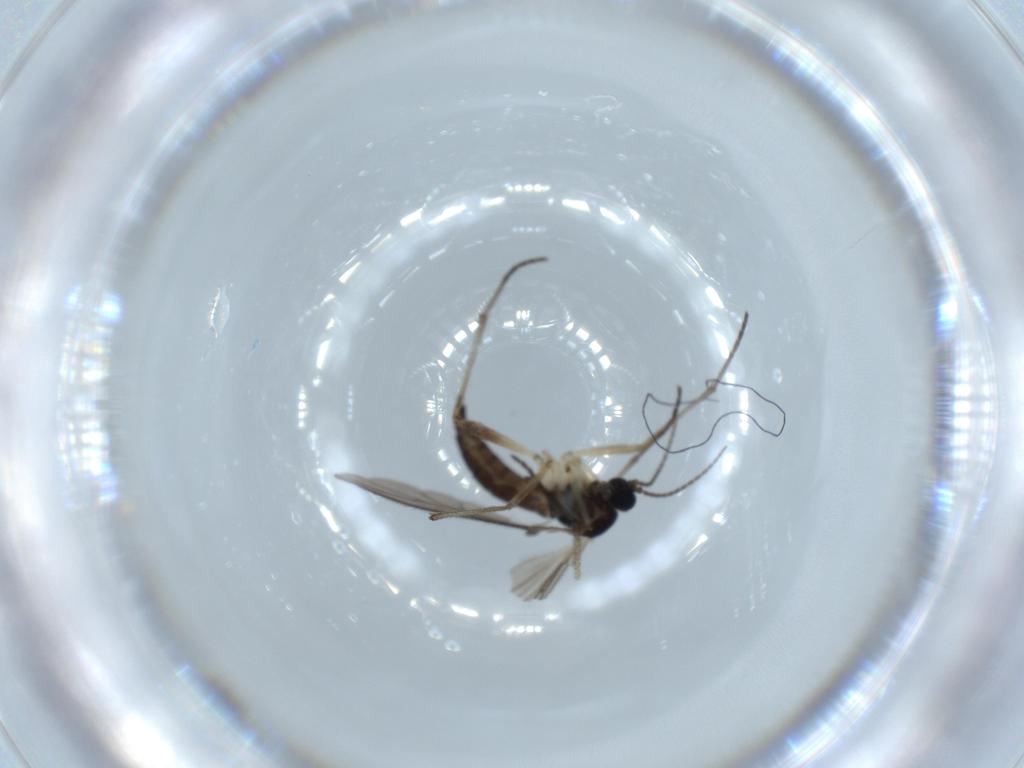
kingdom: Animalia
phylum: Arthropoda
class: Insecta
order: Diptera
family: Sciaridae
